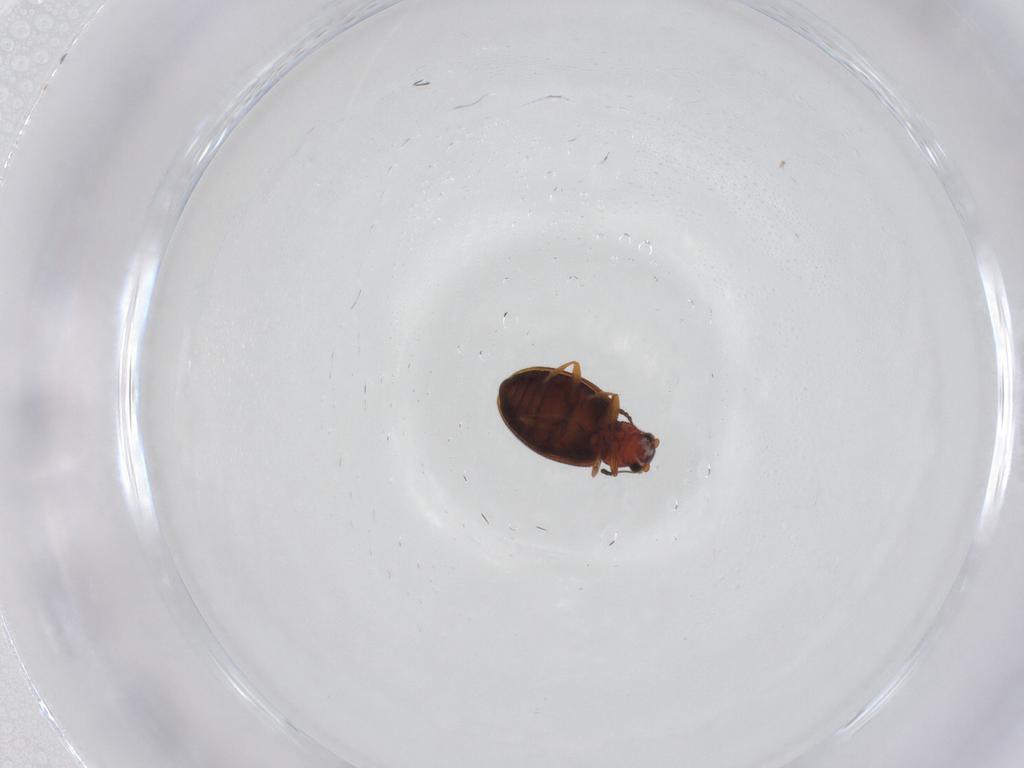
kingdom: Animalia
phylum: Arthropoda
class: Insecta
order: Coleoptera
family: Latridiidae
